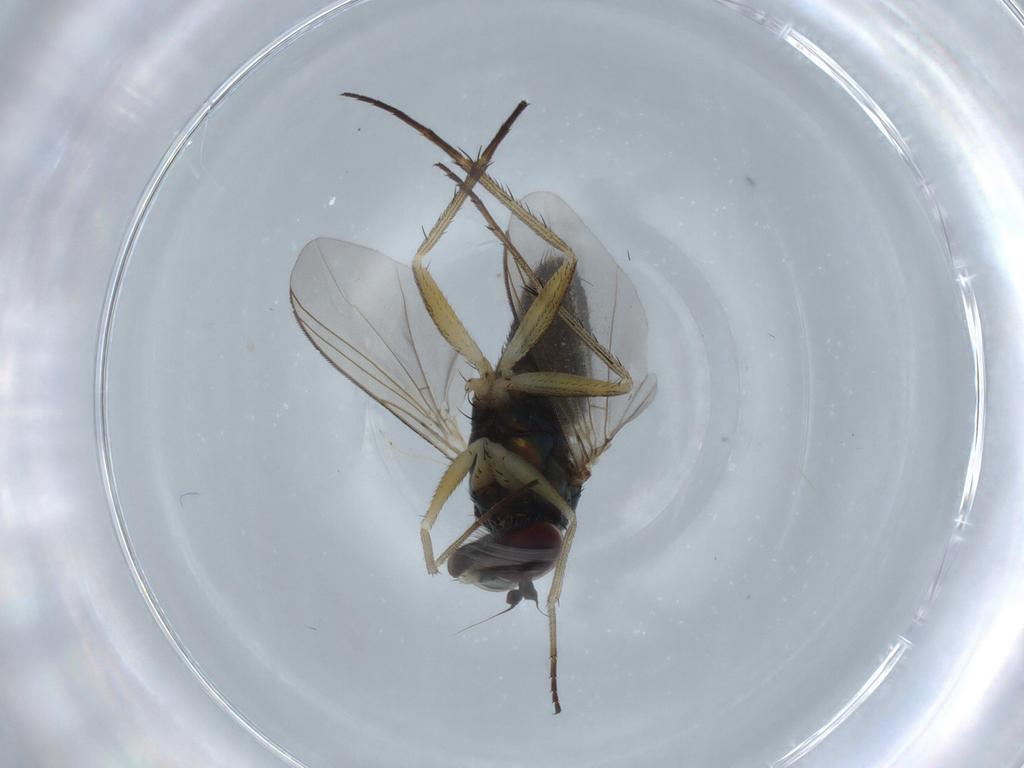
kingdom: Animalia
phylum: Arthropoda
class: Insecta
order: Diptera
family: Dolichopodidae
